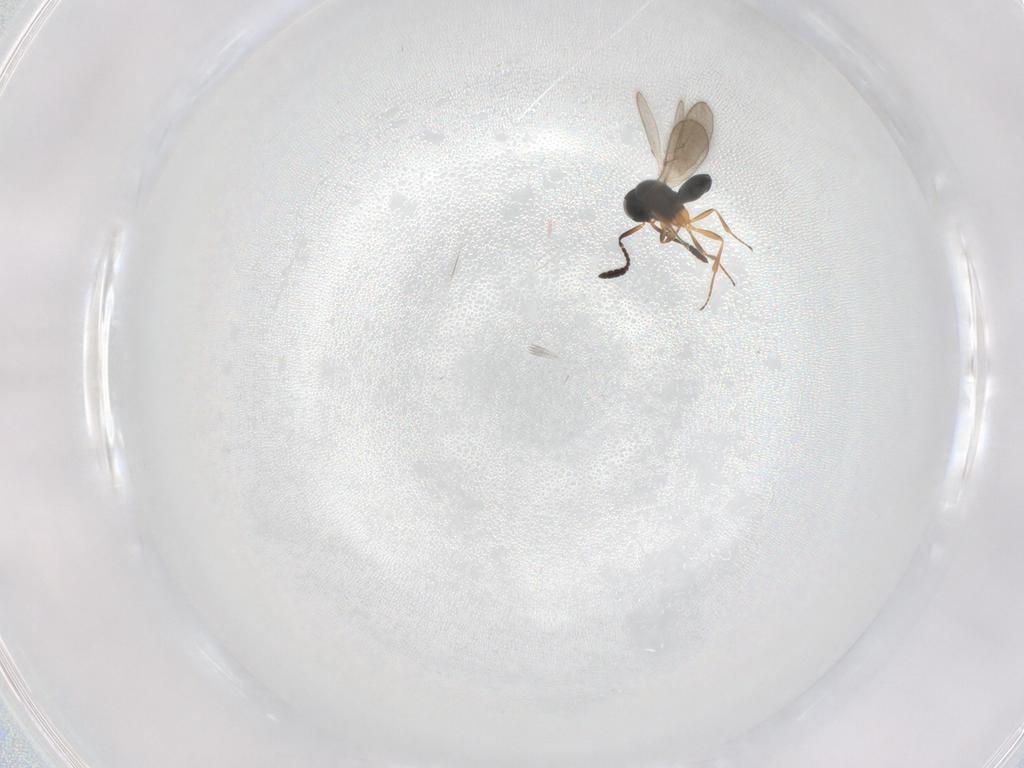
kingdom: Animalia
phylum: Arthropoda
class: Insecta
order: Hymenoptera
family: Scelionidae
